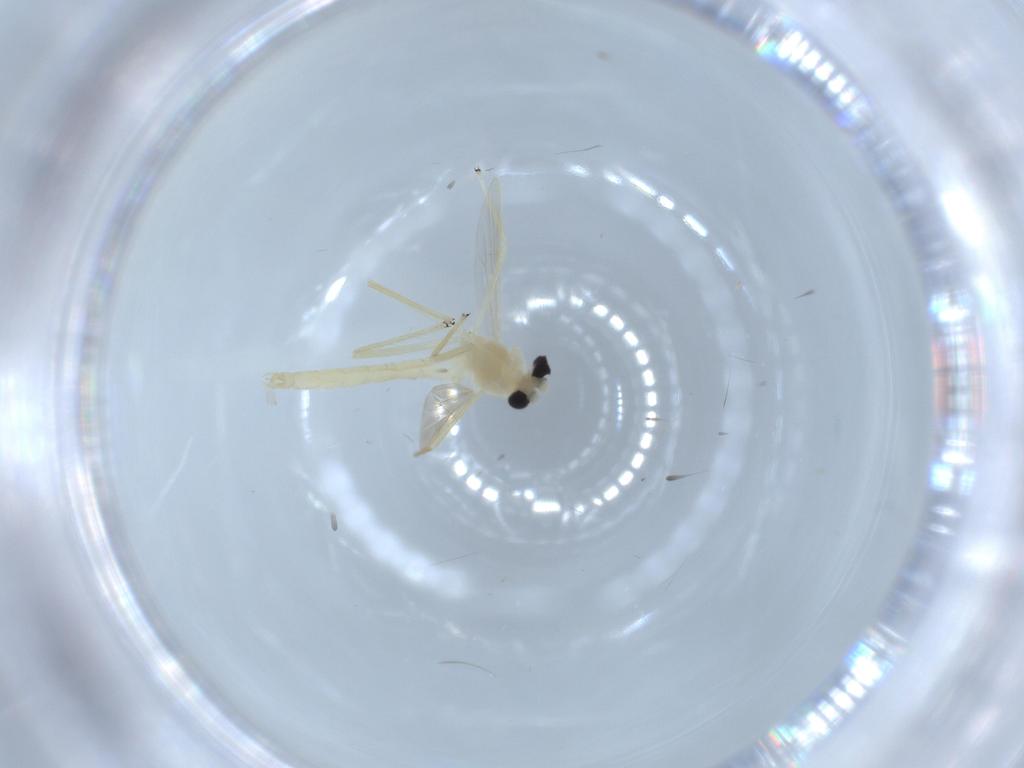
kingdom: Animalia
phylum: Arthropoda
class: Insecta
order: Diptera
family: Chironomidae
